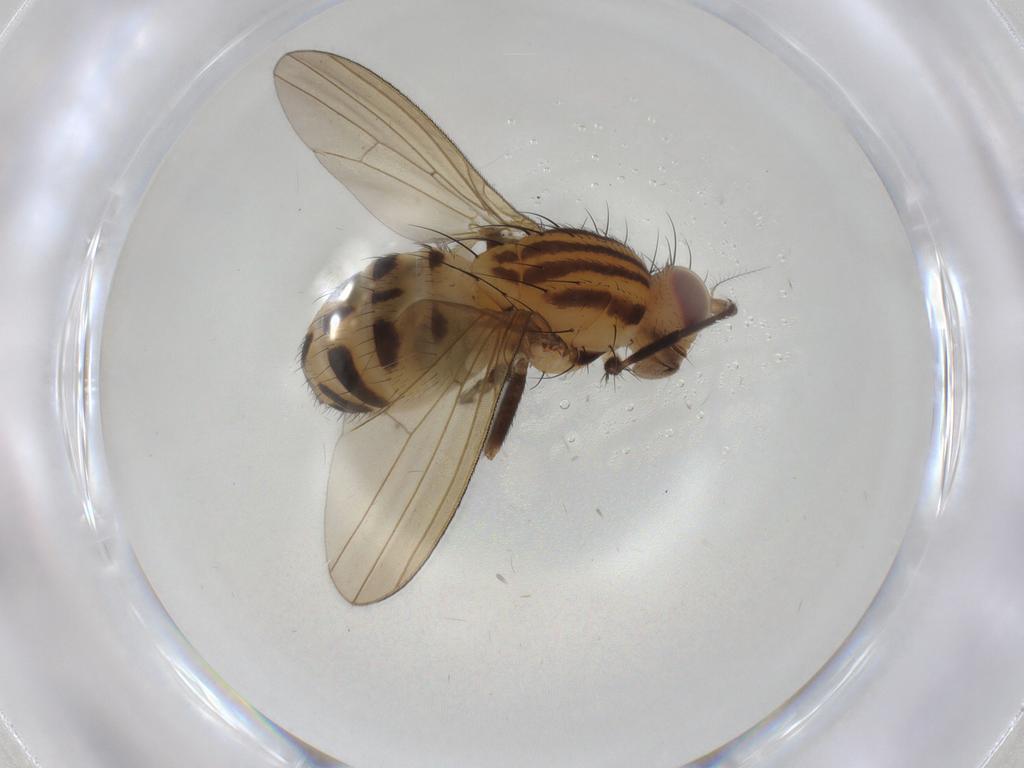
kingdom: Animalia
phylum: Arthropoda
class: Insecta
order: Diptera
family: Lauxaniidae
